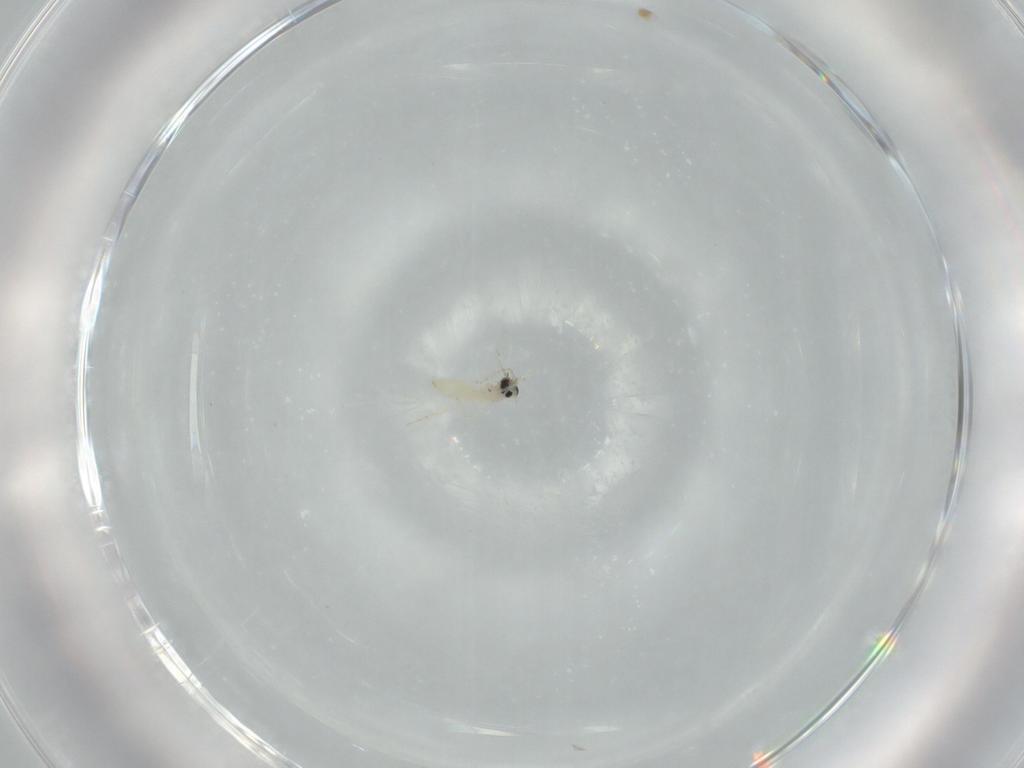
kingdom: Animalia
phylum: Arthropoda
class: Insecta
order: Diptera
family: Cecidomyiidae
